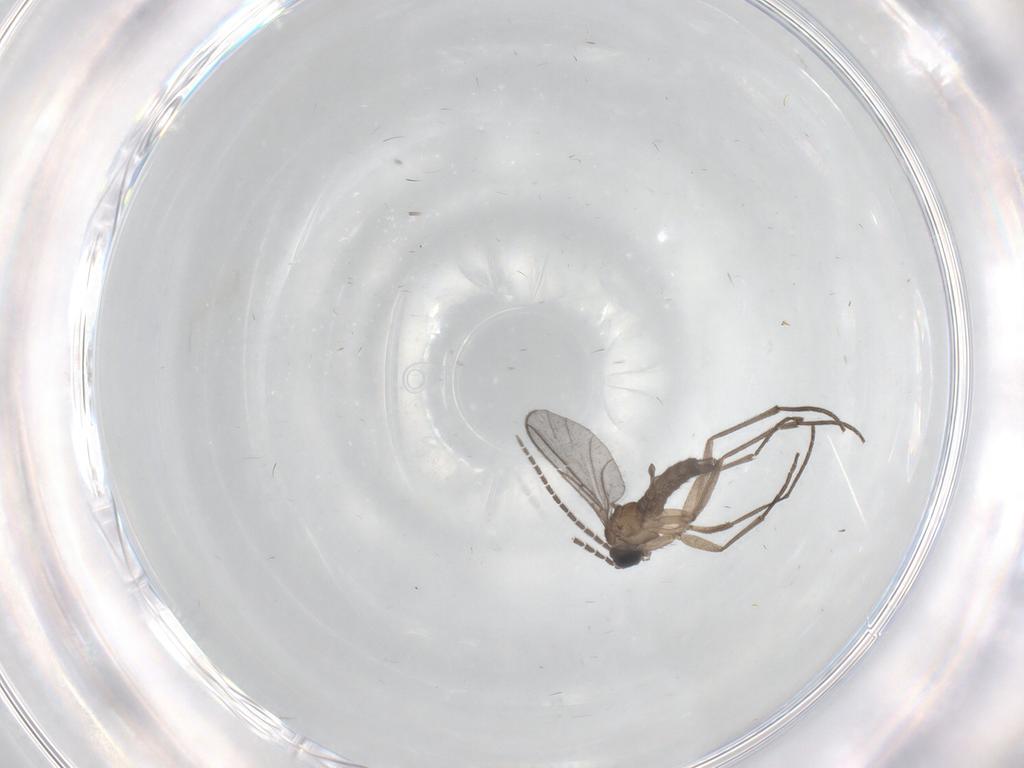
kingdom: Animalia
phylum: Arthropoda
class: Insecta
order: Diptera
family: Sciaridae
